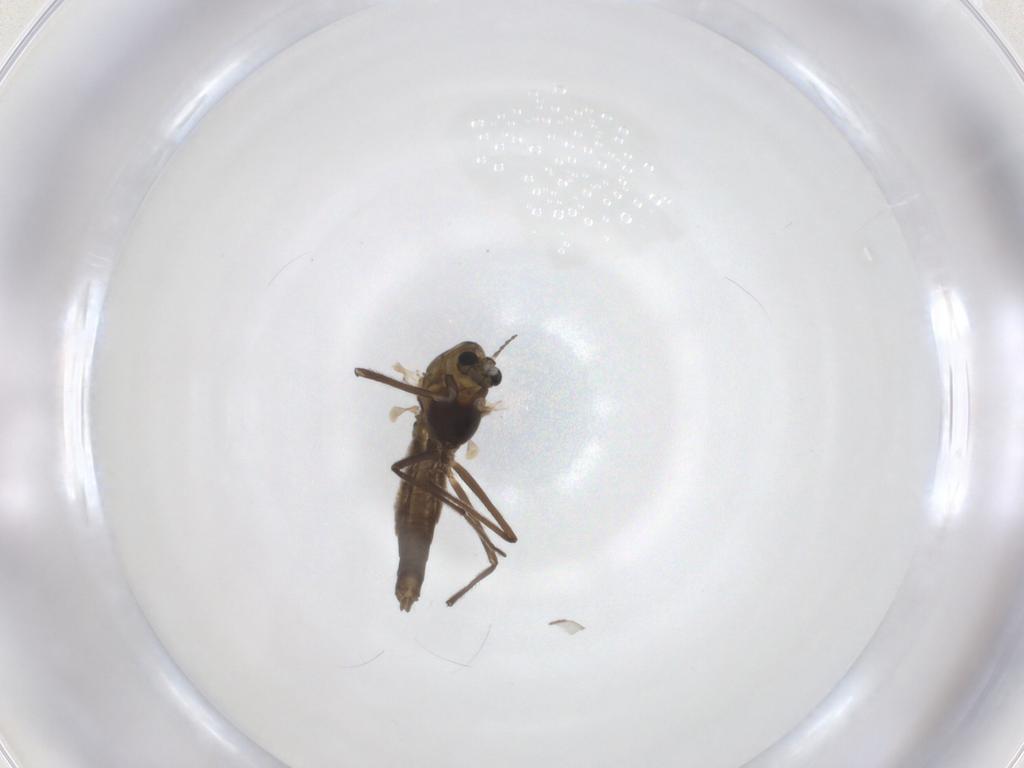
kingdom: Animalia
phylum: Arthropoda
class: Insecta
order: Diptera
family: Chironomidae
